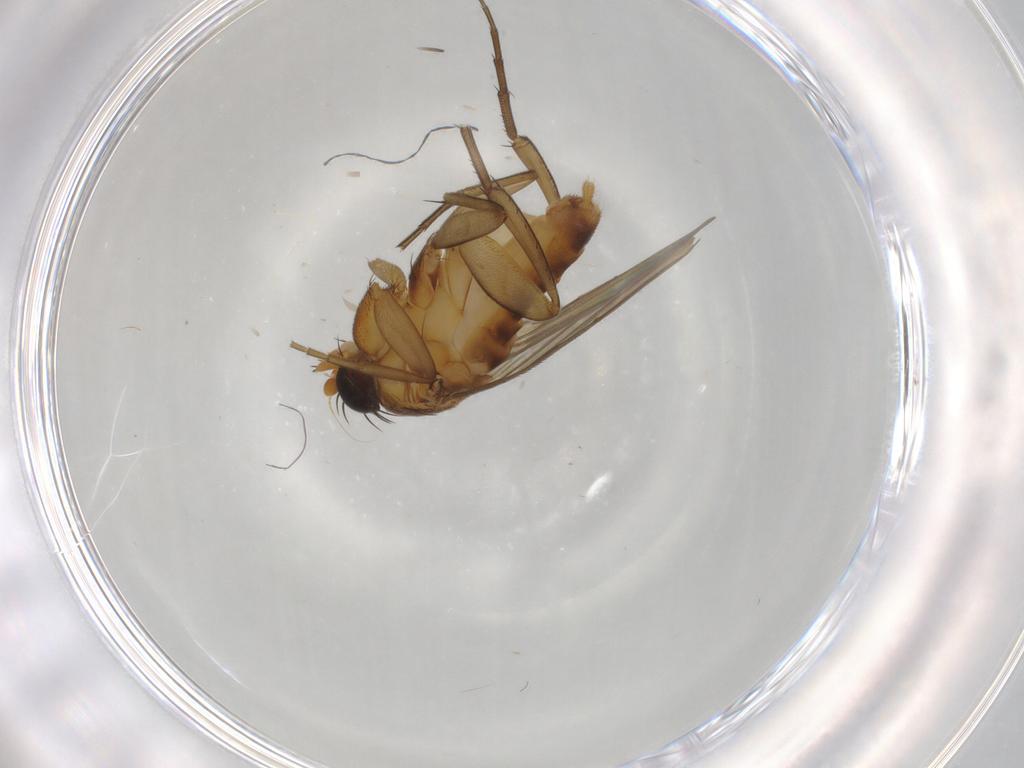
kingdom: Animalia
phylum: Arthropoda
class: Insecta
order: Diptera
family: Cecidomyiidae
